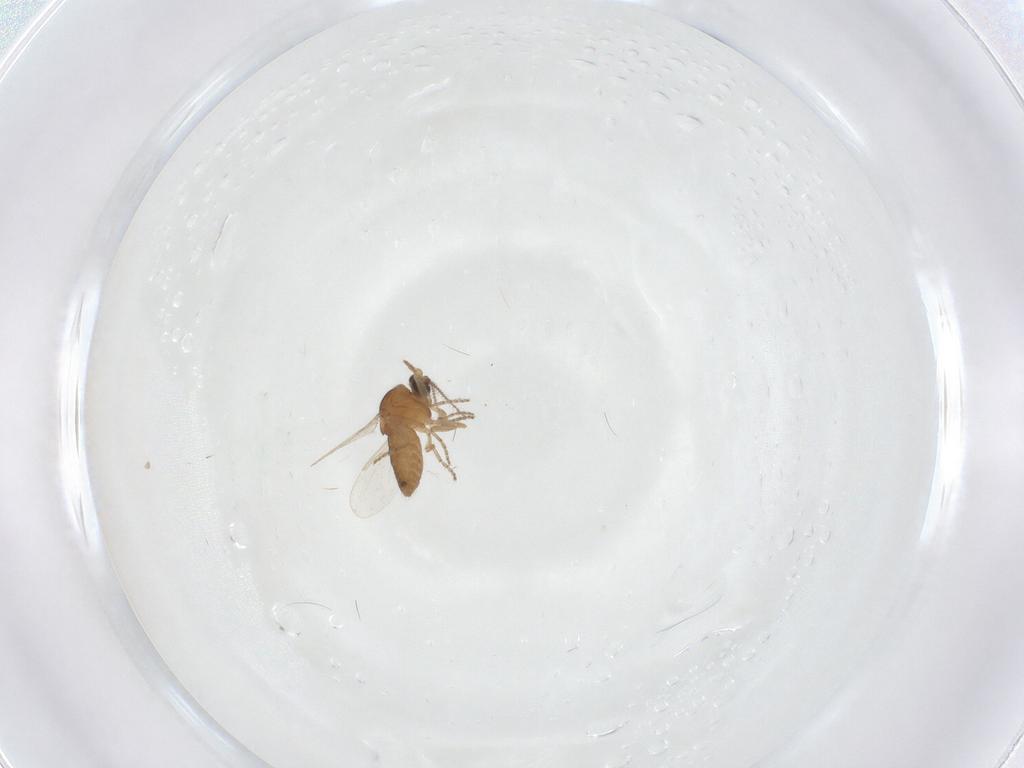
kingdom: Animalia
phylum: Arthropoda
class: Insecta
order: Diptera
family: Ceratopogonidae
